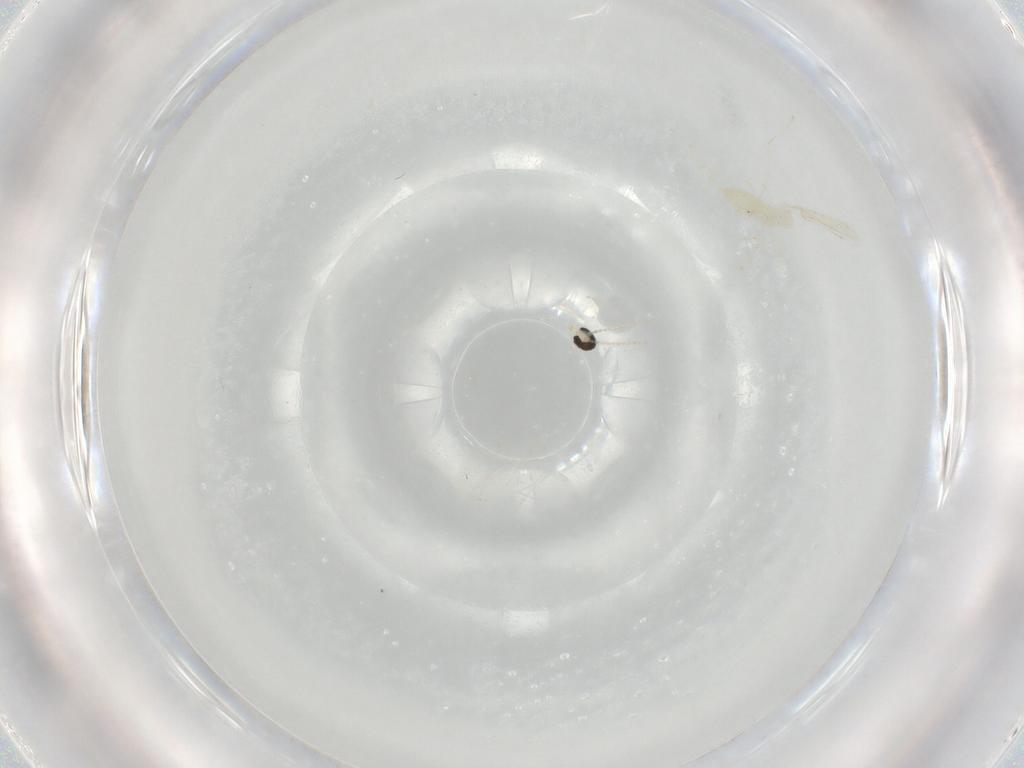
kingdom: Animalia
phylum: Arthropoda
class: Insecta
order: Diptera
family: Cecidomyiidae
